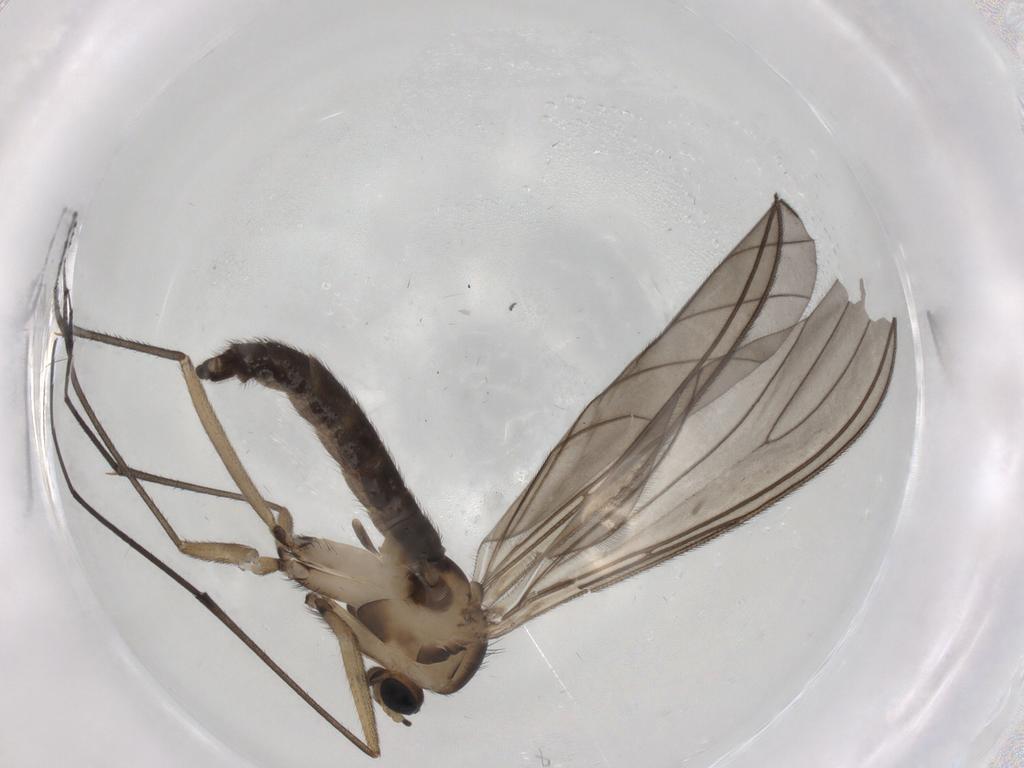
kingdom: Animalia
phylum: Arthropoda
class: Insecta
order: Diptera
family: Sciaridae
